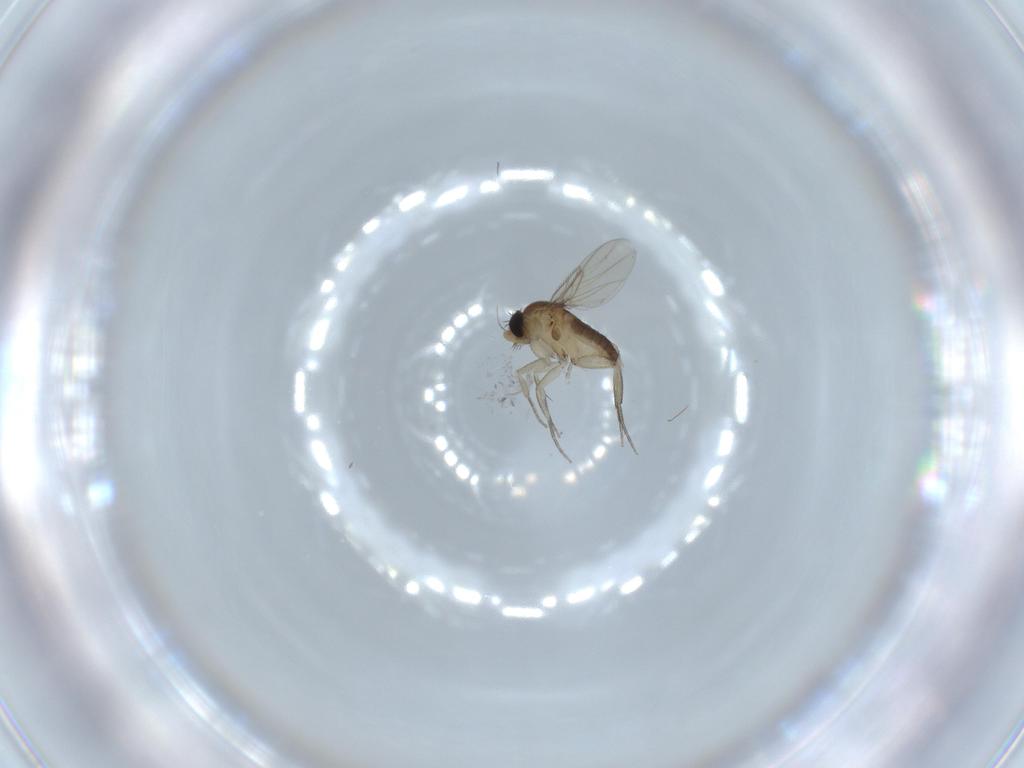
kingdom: Animalia
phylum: Arthropoda
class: Insecta
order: Diptera
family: Phoridae
